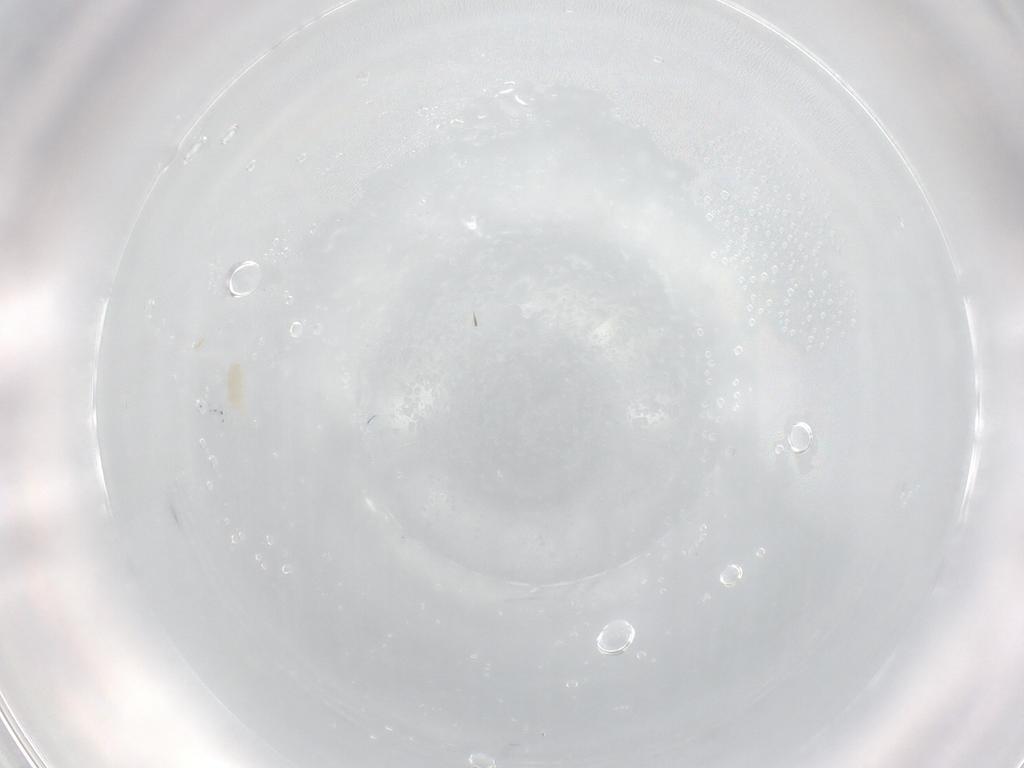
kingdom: Animalia
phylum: Arthropoda
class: Arachnida
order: Trombidiformes
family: Eupodidae
